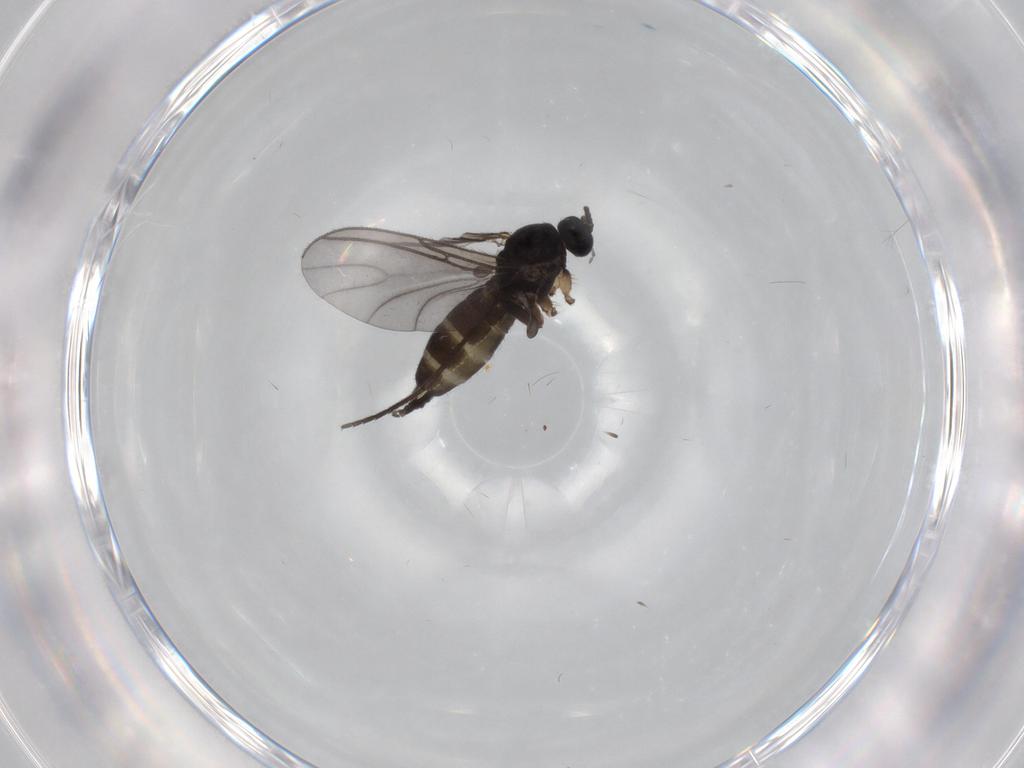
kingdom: Animalia
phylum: Arthropoda
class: Insecta
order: Diptera
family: Sciaridae
